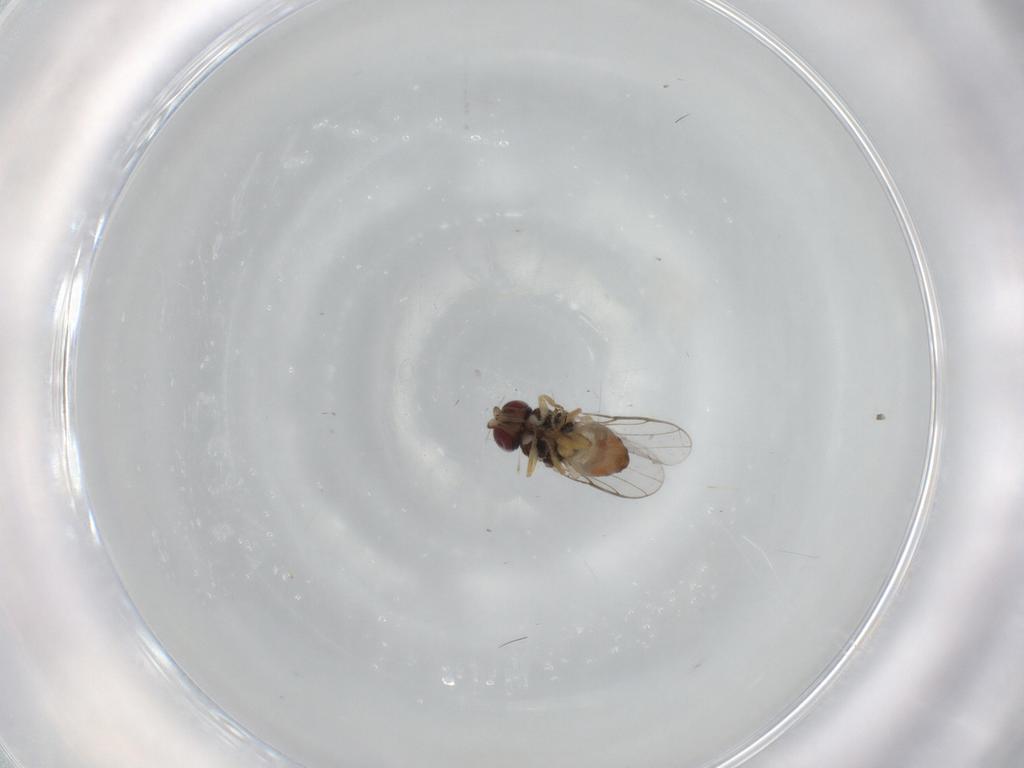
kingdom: Animalia
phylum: Arthropoda
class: Insecta
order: Diptera
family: Chloropidae
